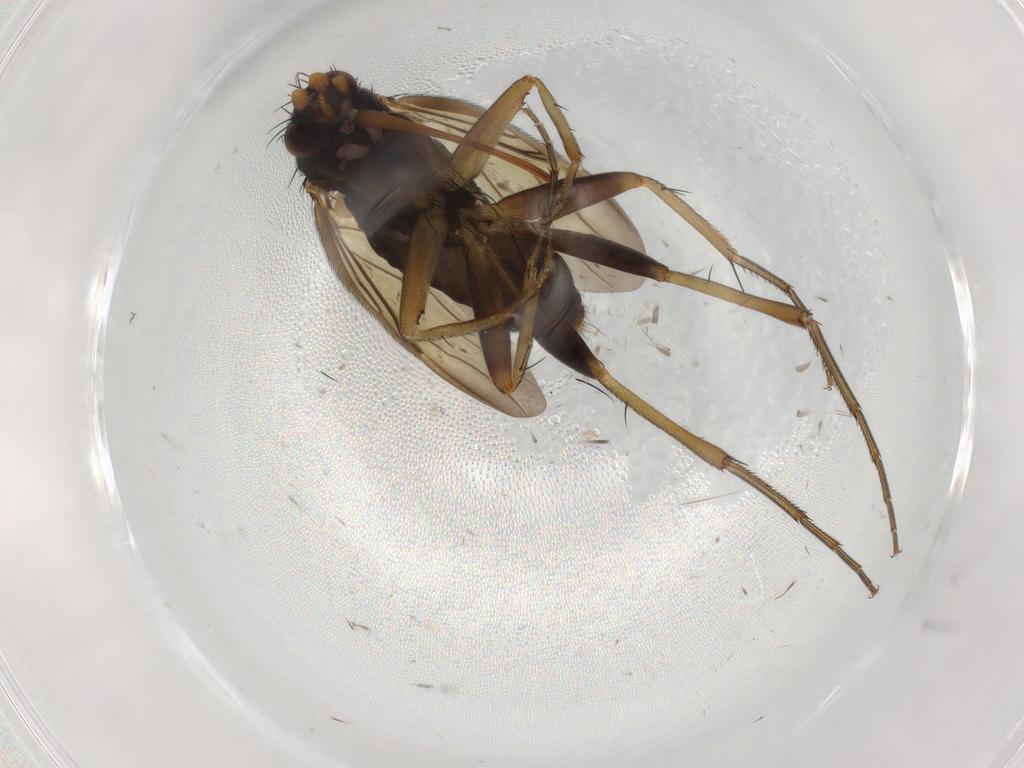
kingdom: Animalia
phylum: Arthropoda
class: Insecta
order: Diptera
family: Phoridae
